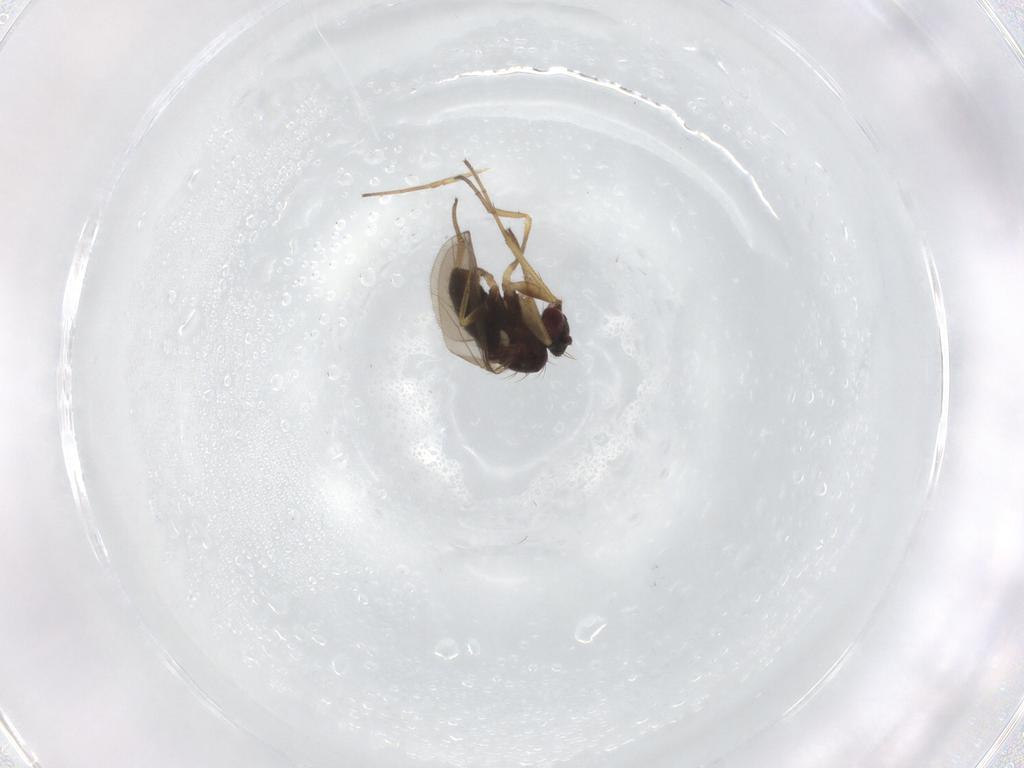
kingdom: Animalia
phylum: Arthropoda
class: Insecta
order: Diptera
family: Dolichopodidae
